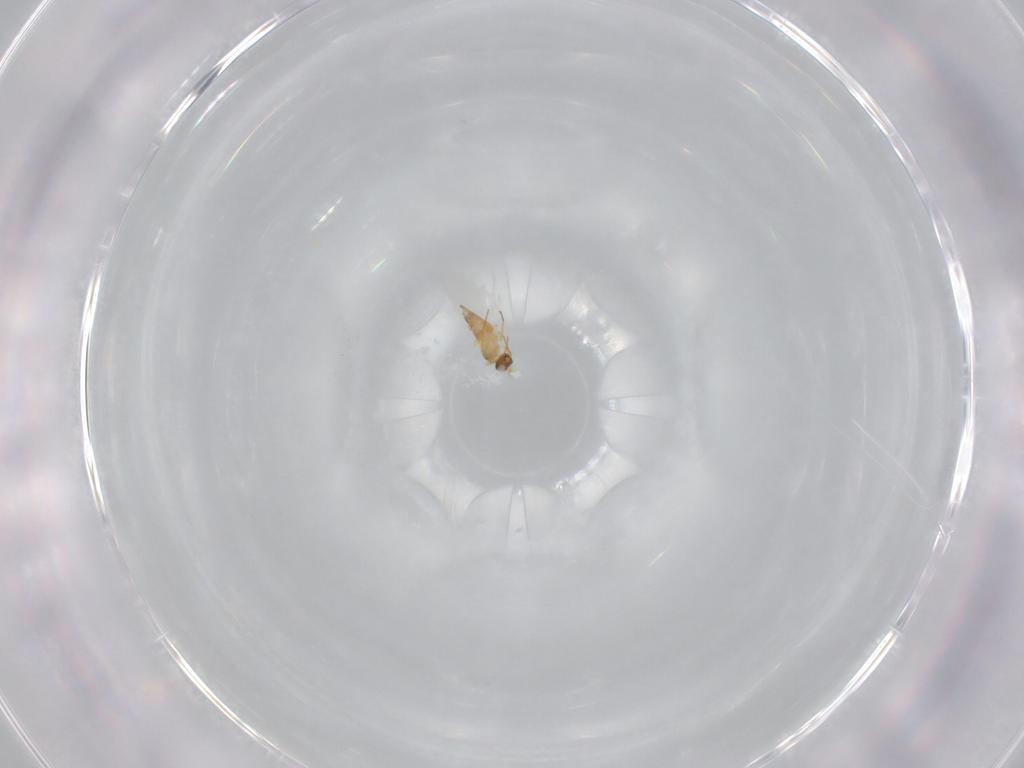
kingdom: Animalia
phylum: Arthropoda
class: Insecta
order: Hymenoptera
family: Mymaridae
